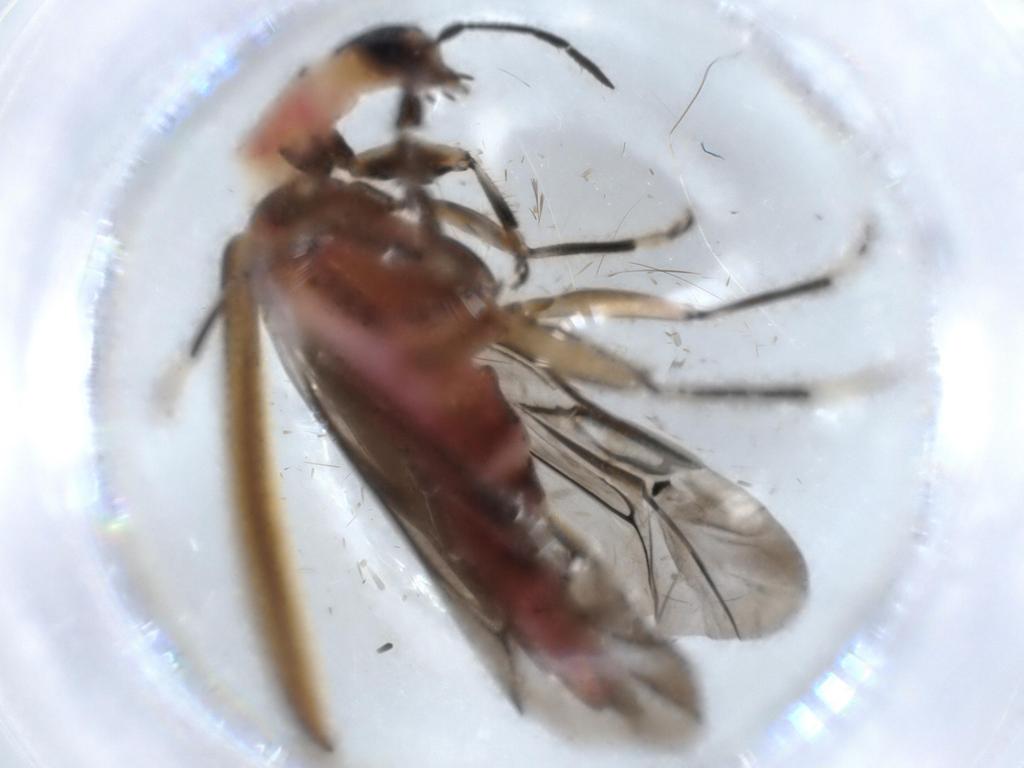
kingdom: Animalia
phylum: Arthropoda
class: Insecta
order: Coleoptera
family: Cleridae
